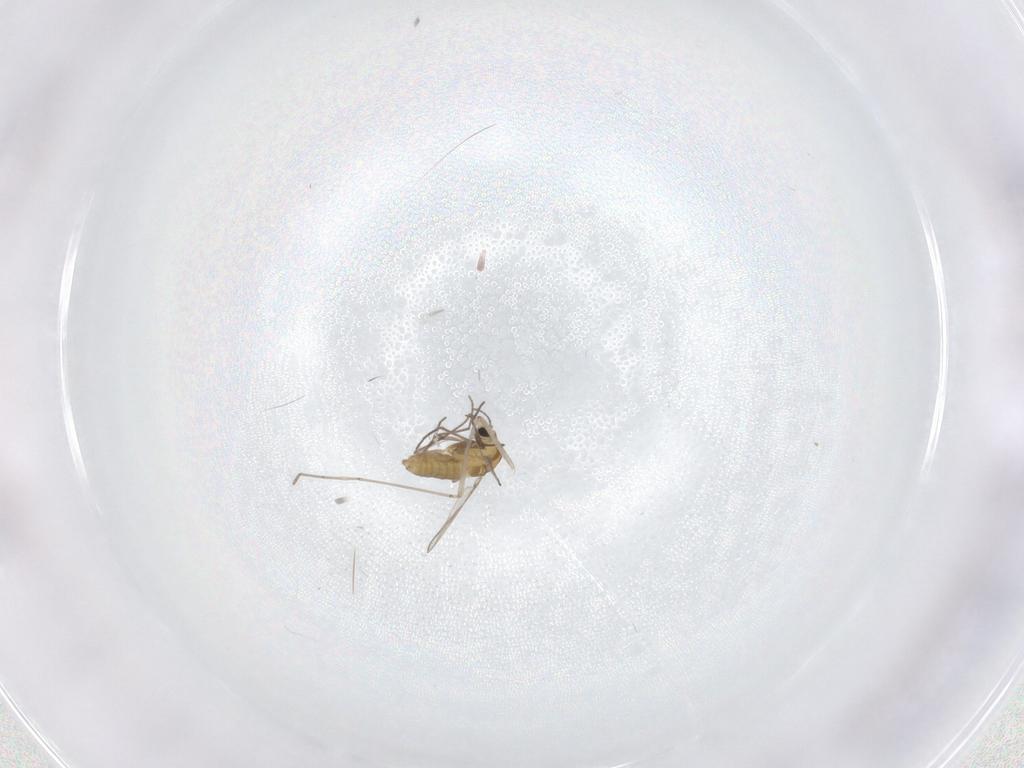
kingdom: Animalia
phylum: Arthropoda
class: Insecta
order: Diptera
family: Chironomidae
